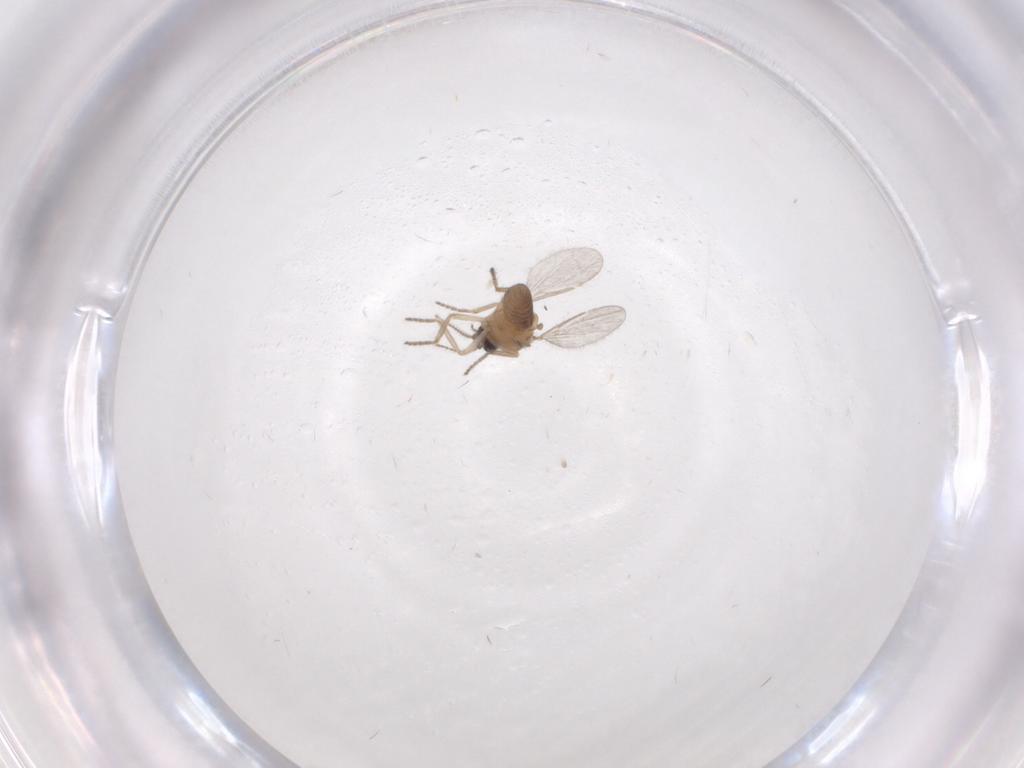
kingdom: Animalia
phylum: Arthropoda
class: Insecta
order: Diptera
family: Ceratopogonidae
